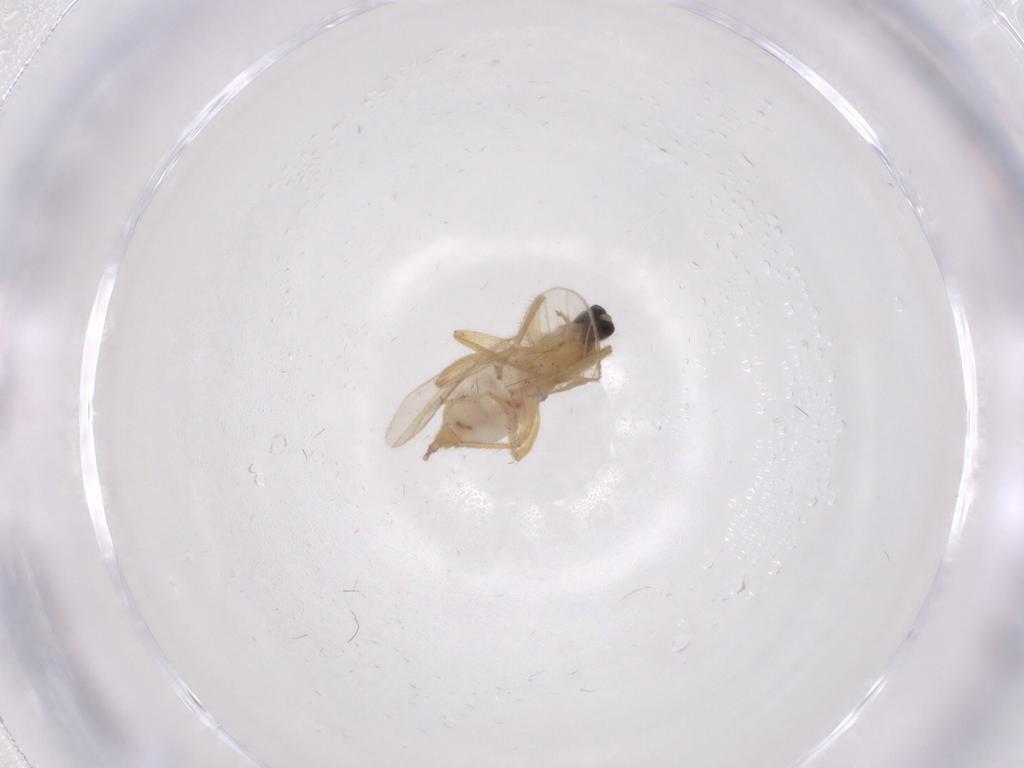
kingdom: Animalia
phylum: Arthropoda
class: Insecta
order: Diptera
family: Hybotidae
